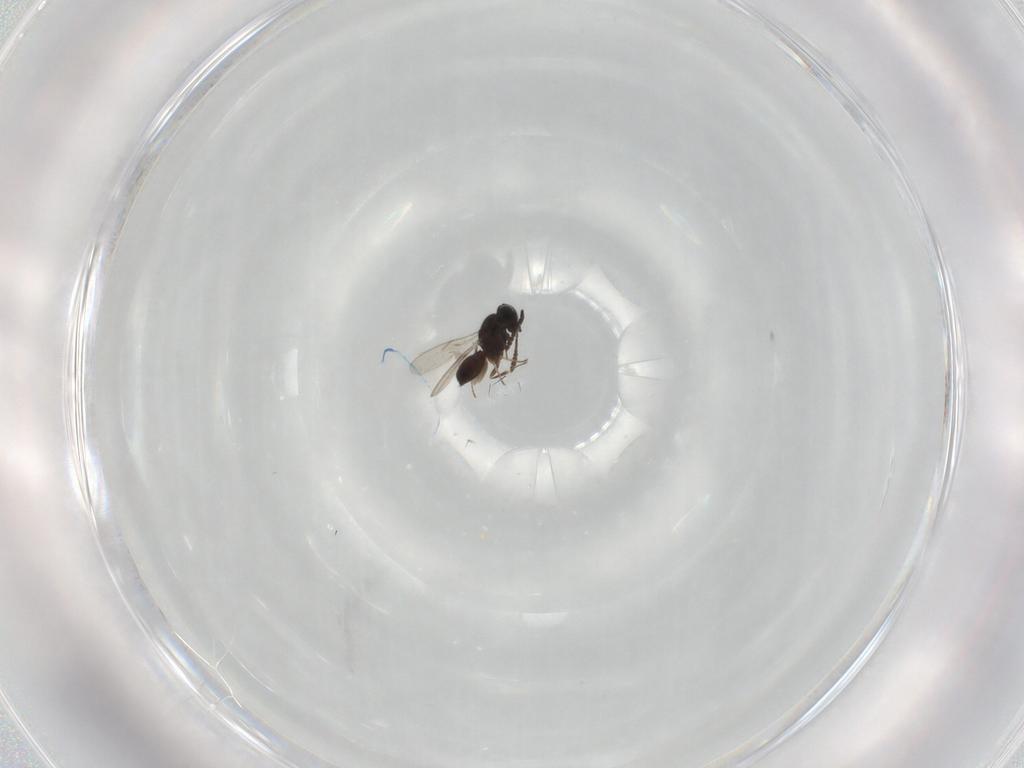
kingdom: Animalia
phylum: Arthropoda
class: Insecta
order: Hymenoptera
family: Scelionidae
